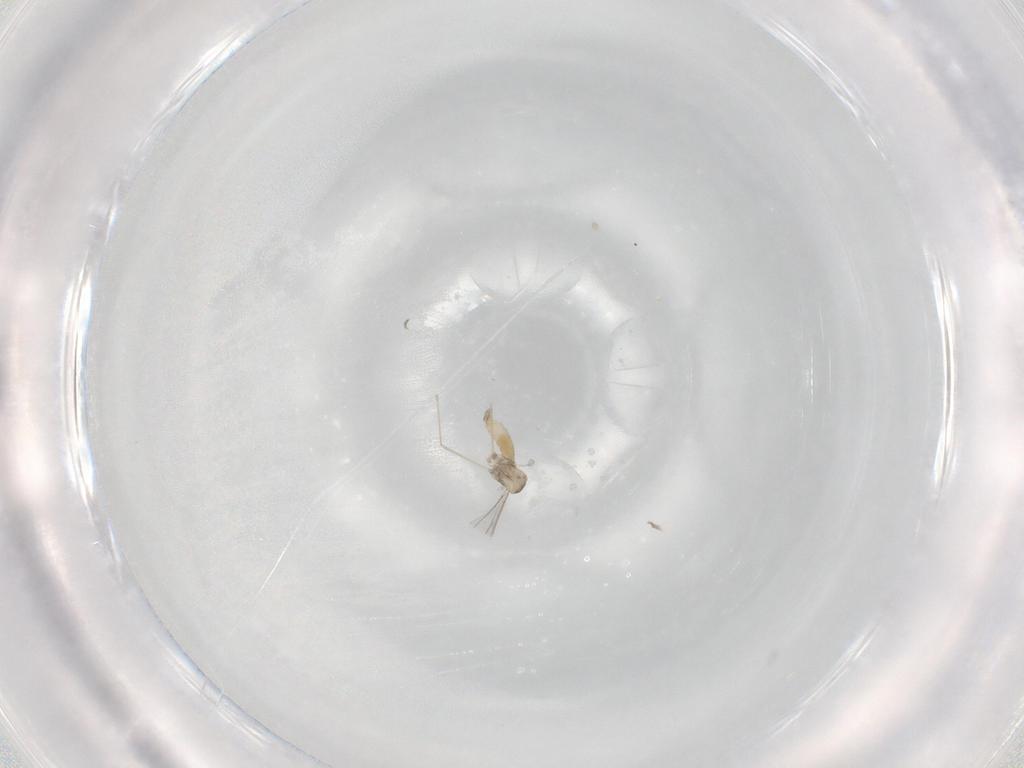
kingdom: Animalia
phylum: Arthropoda
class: Insecta
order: Diptera
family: Cecidomyiidae
